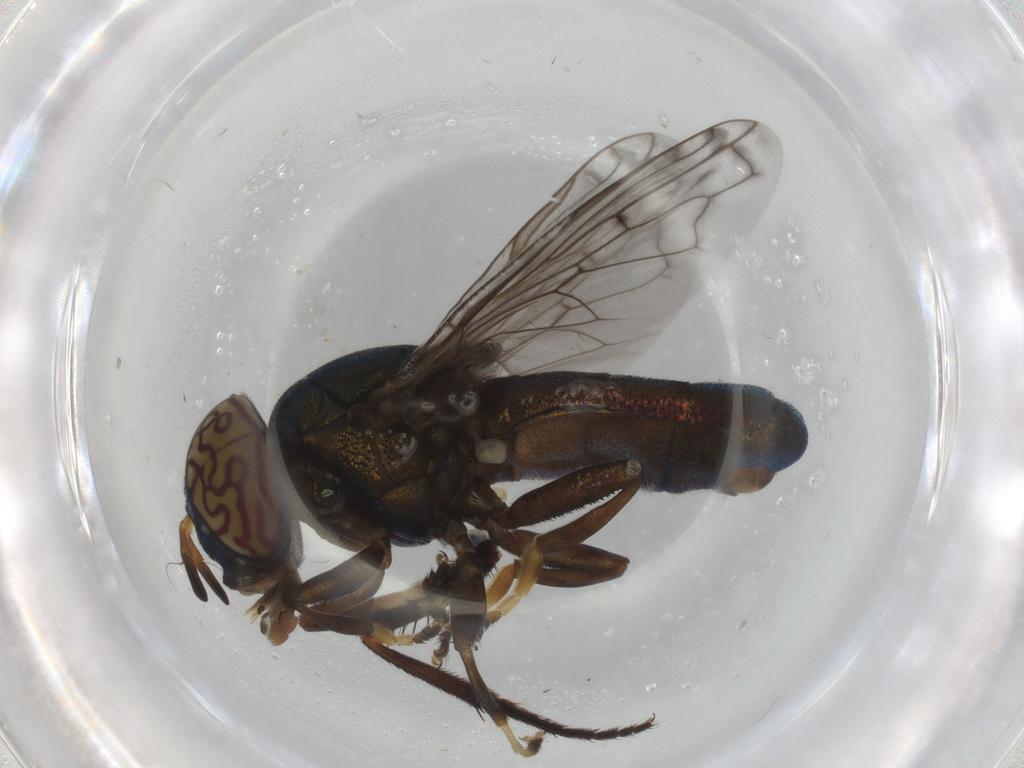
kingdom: Animalia
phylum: Arthropoda
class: Insecta
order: Diptera
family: Syrphidae
